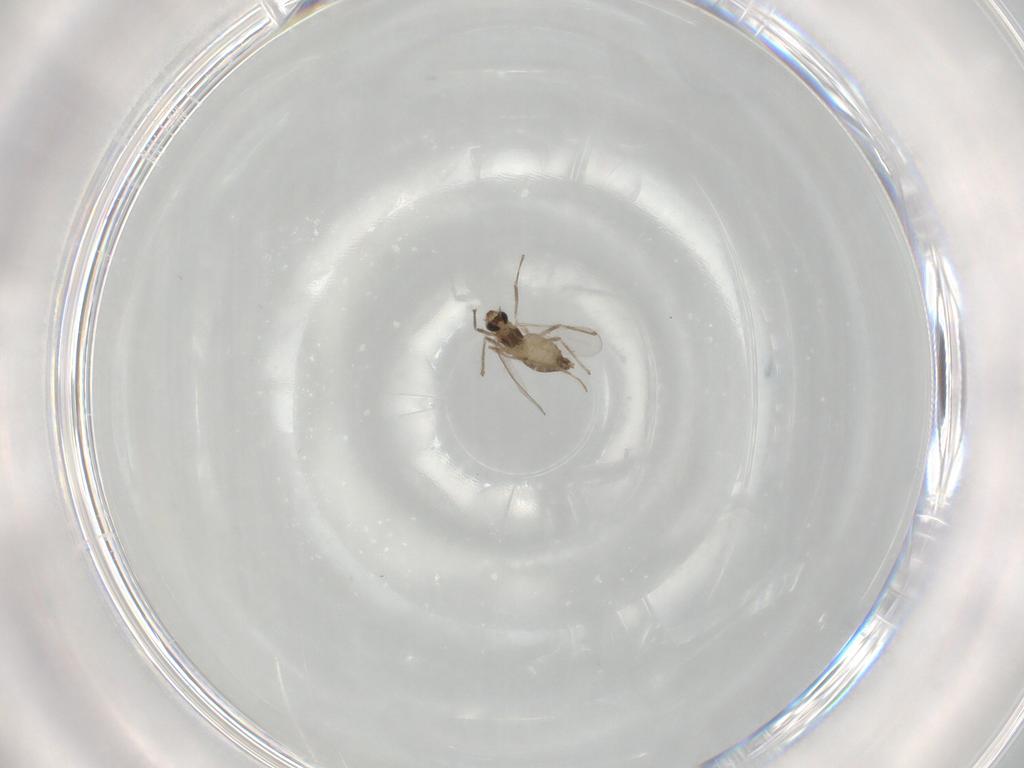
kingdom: Animalia
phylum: Arthropoda
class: Insecta
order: Diptera
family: Chironomidae
